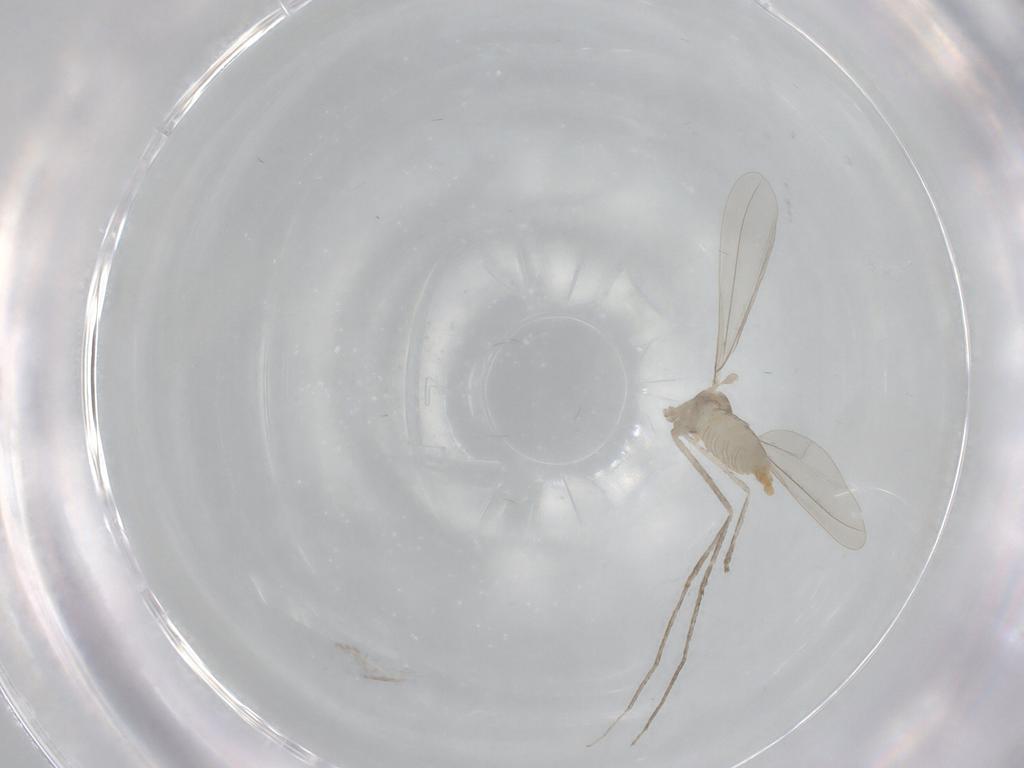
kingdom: Animalia
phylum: Arthropoda
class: Insecta
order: Diptera
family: Cecidomyiidae
